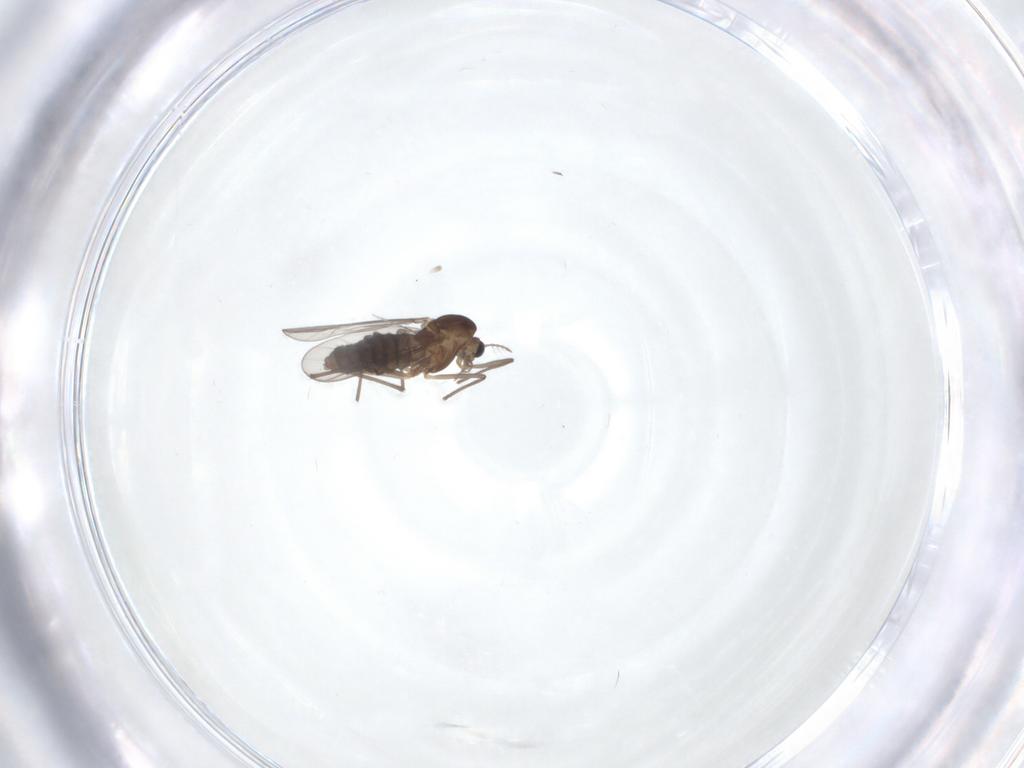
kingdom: Animalia
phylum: Arthropoda
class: Insecta
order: Diptera
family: Chironomidae
